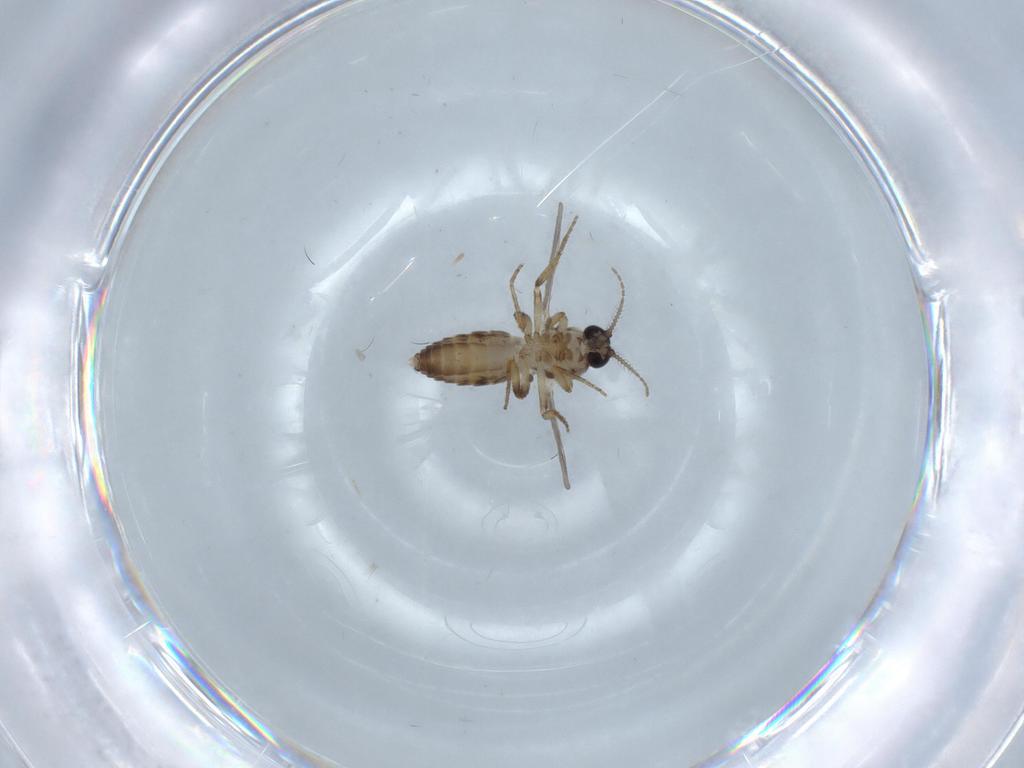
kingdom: Animalia
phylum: Arthropoda
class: Insecta
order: Diptera
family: Ceratopogonidae
